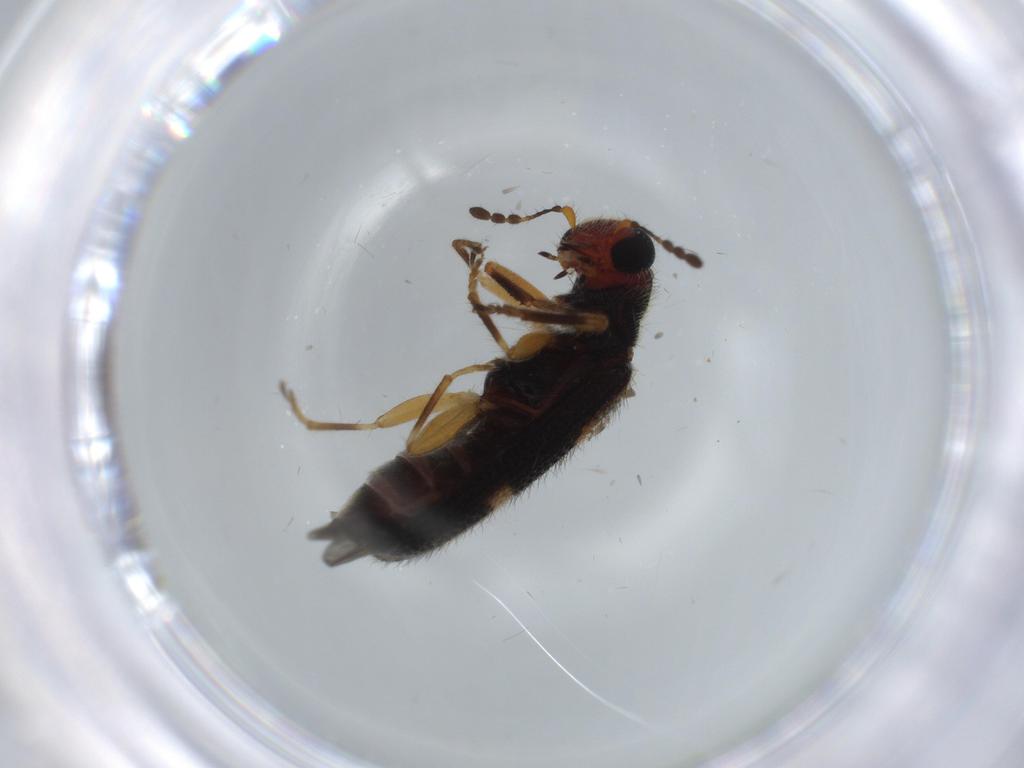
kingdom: Animalia
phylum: Arthropoda
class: Insecta
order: Coleoptera
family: Cleridae
